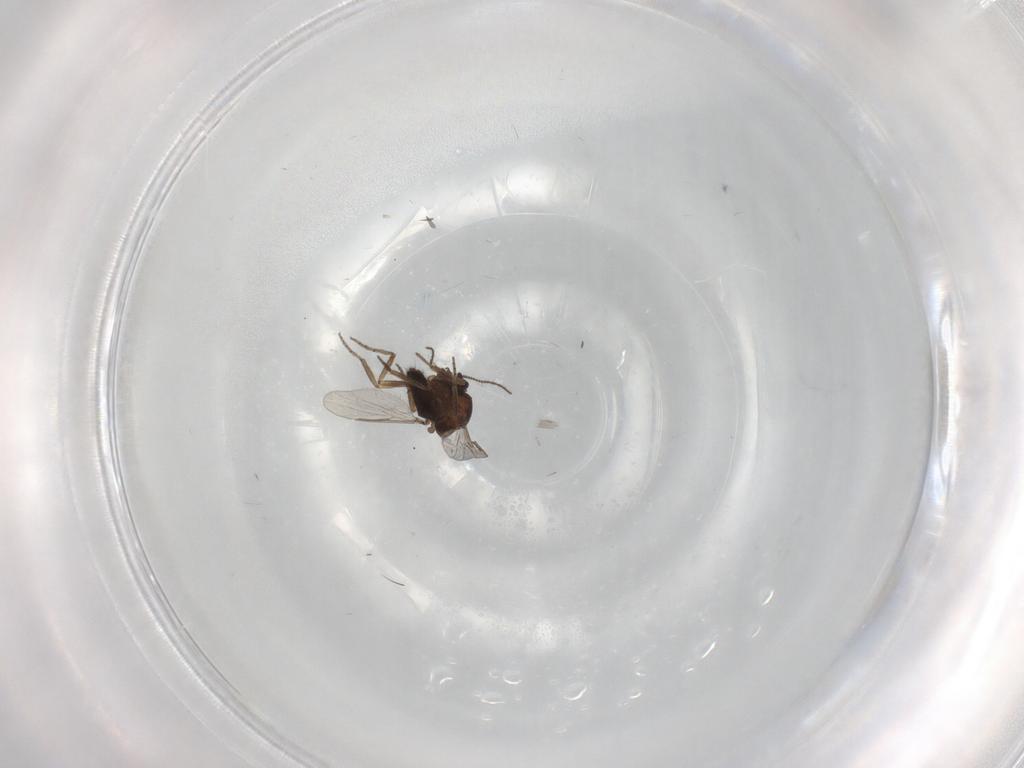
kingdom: Animalia
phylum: Arthropoda
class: Insecta
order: Diptera
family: Ceratopogonidae
